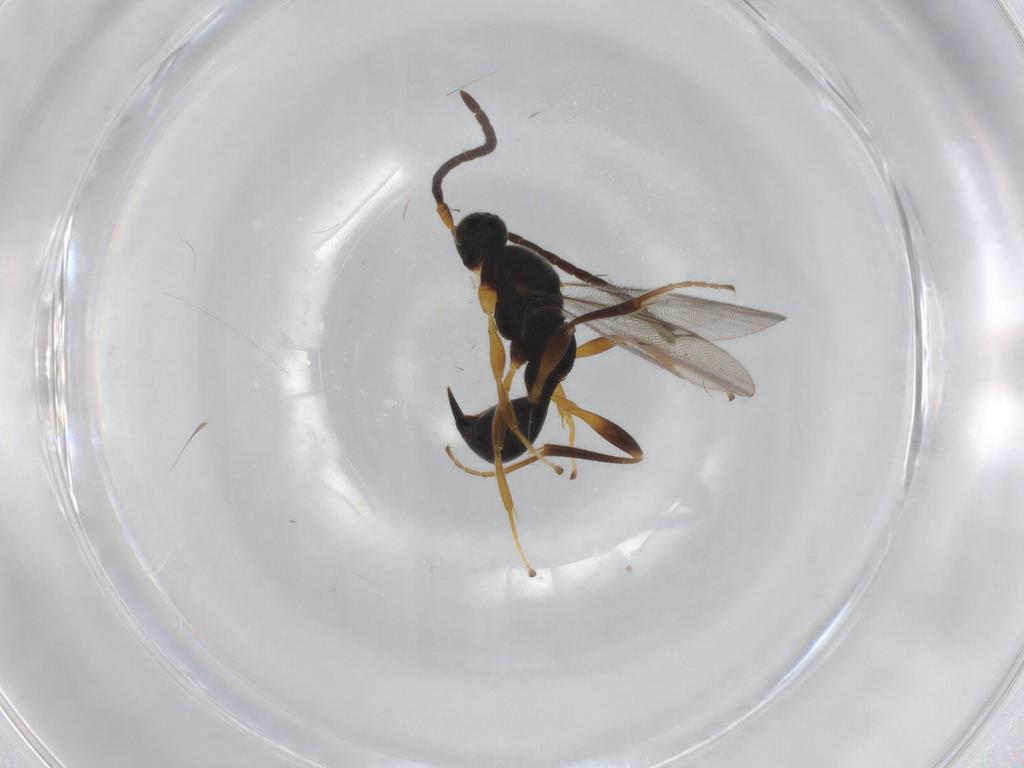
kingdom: Animalia
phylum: Arthropoda
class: Insecta
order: Hymenoptera
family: Proctotrupidae
